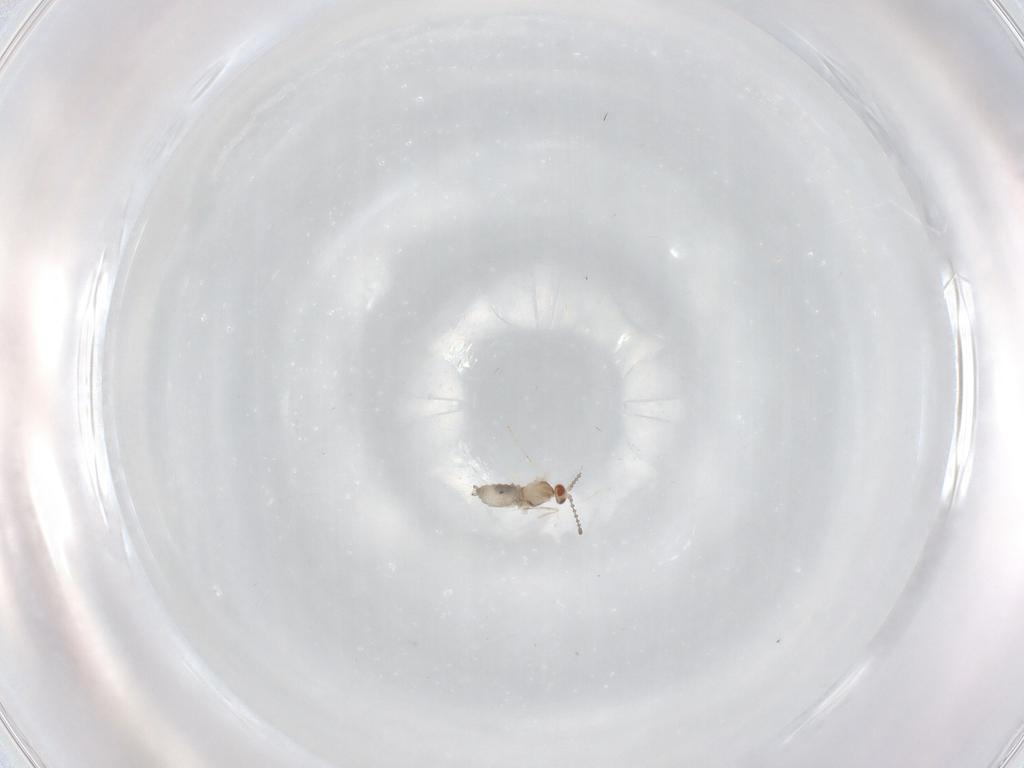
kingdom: Animalia
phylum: Arthropoda
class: Insecta
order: Diptera
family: Cecidomyiidae
